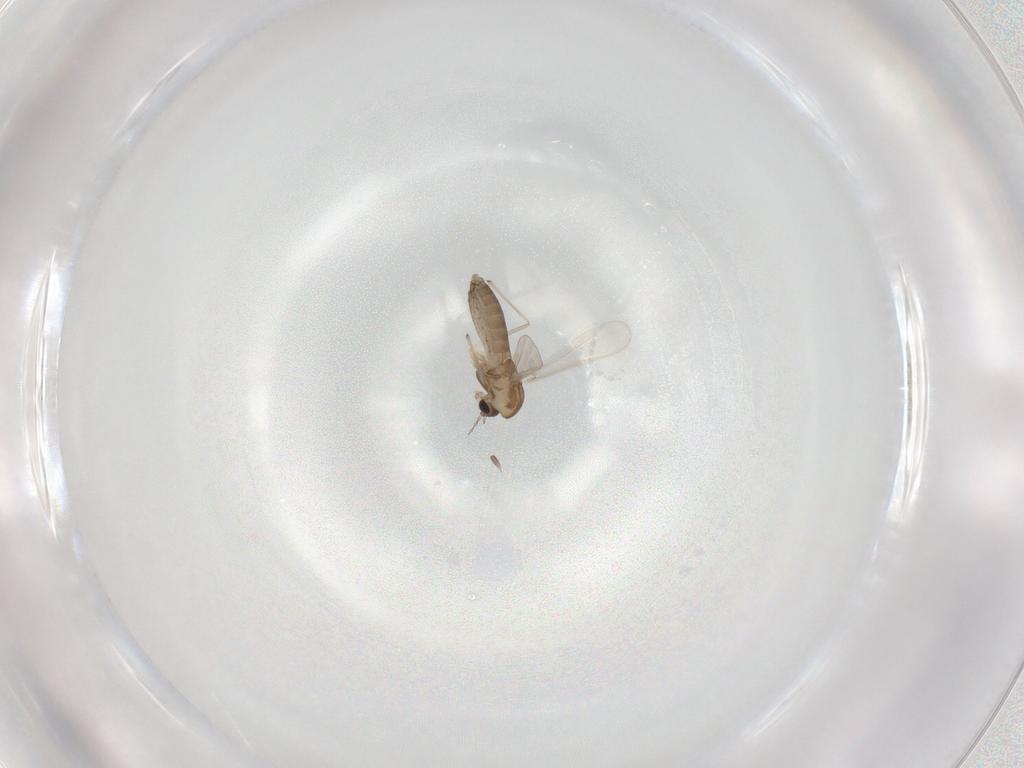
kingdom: Animalia
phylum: Arthropoda
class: Insecta
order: Diptera
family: Chironomidae
